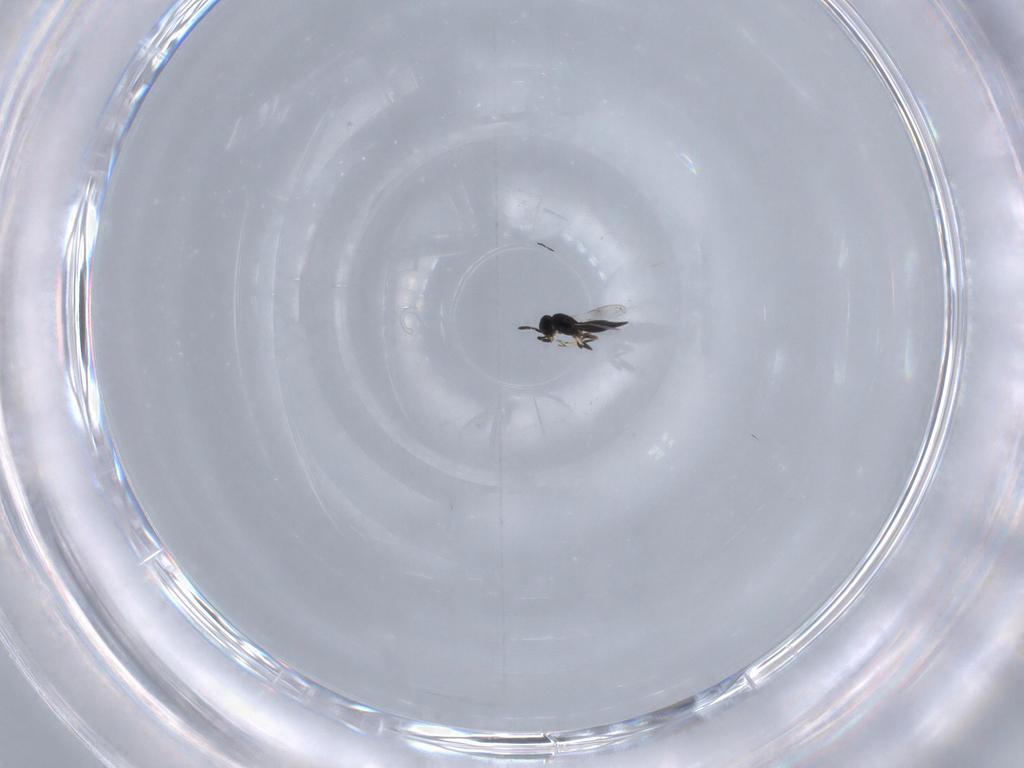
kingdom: Animalia
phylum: Arthropoda
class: Insecta
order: Hymenoptera
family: Scelionidae
